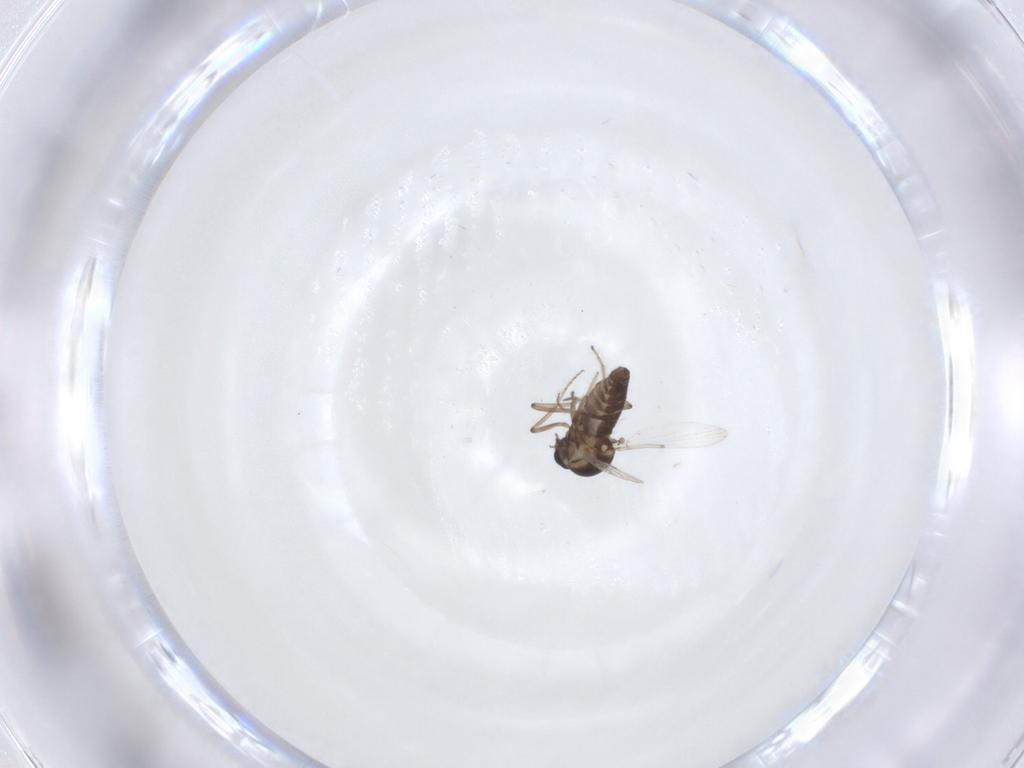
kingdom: Animalia
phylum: Arthropoda
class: Insecta
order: Diptera
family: Ceratopogonidae
